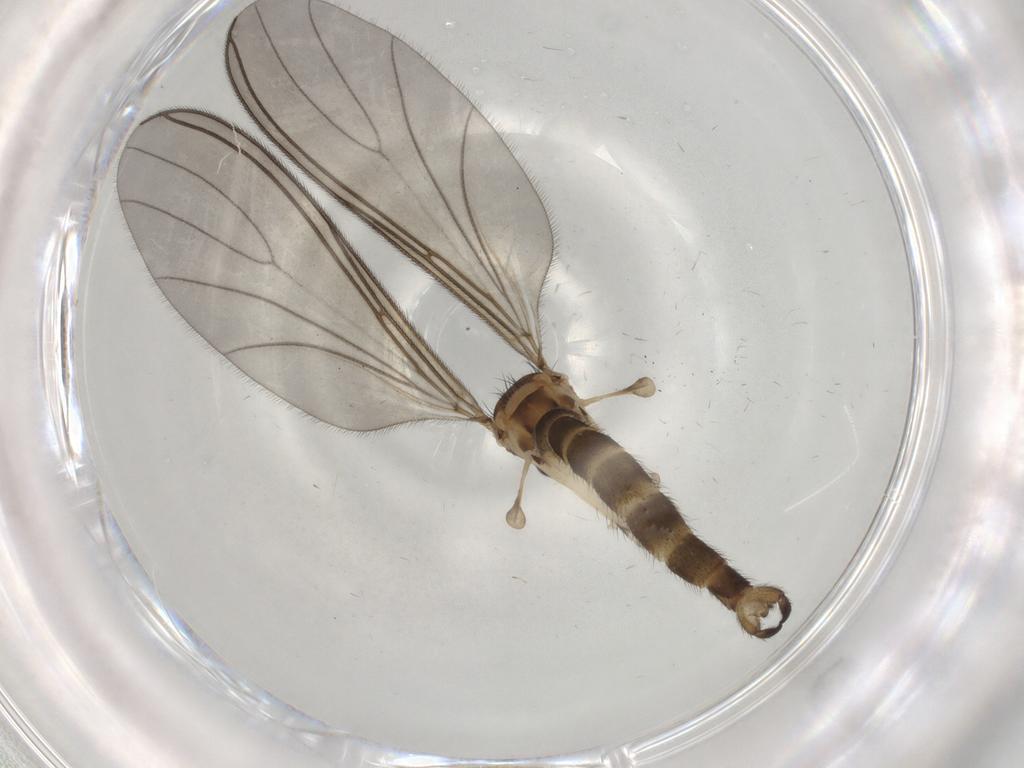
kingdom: Animalia
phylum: Arthropoda
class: Insecta
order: Diptera
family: Sciaridae
